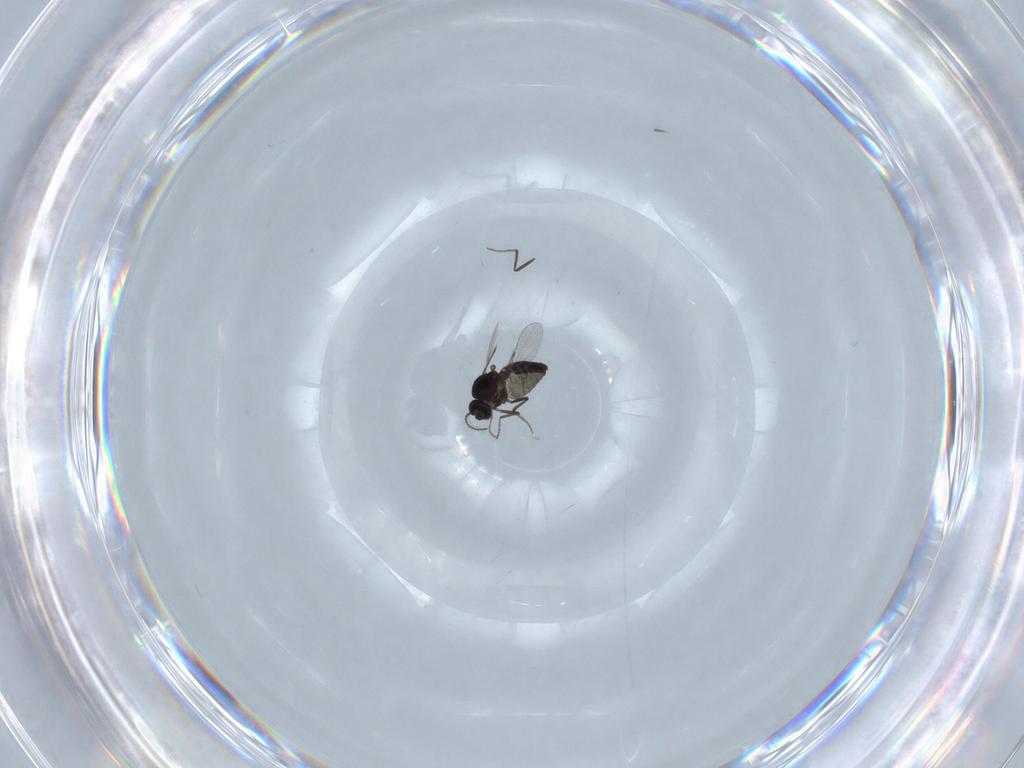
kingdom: Animalia
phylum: Arthropoda
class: Insecta
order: Diptera
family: Ceratopogonidae
